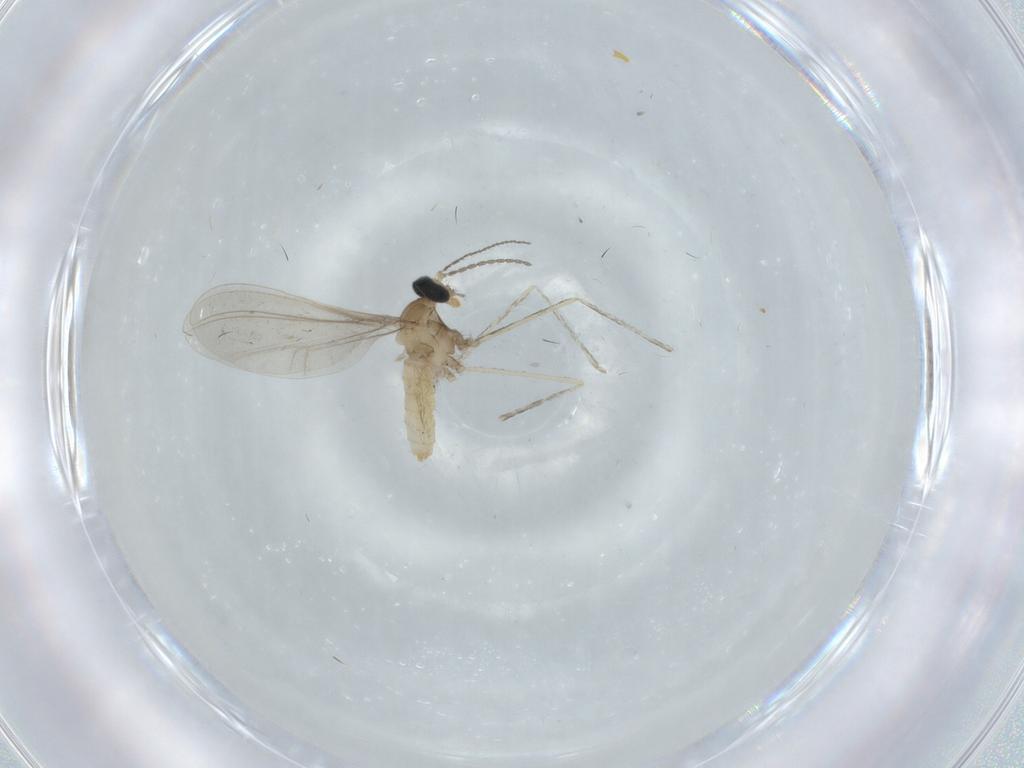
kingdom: Animalia
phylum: Arthropoda
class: Insecta
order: Diptera
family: Cecidomyiidae
